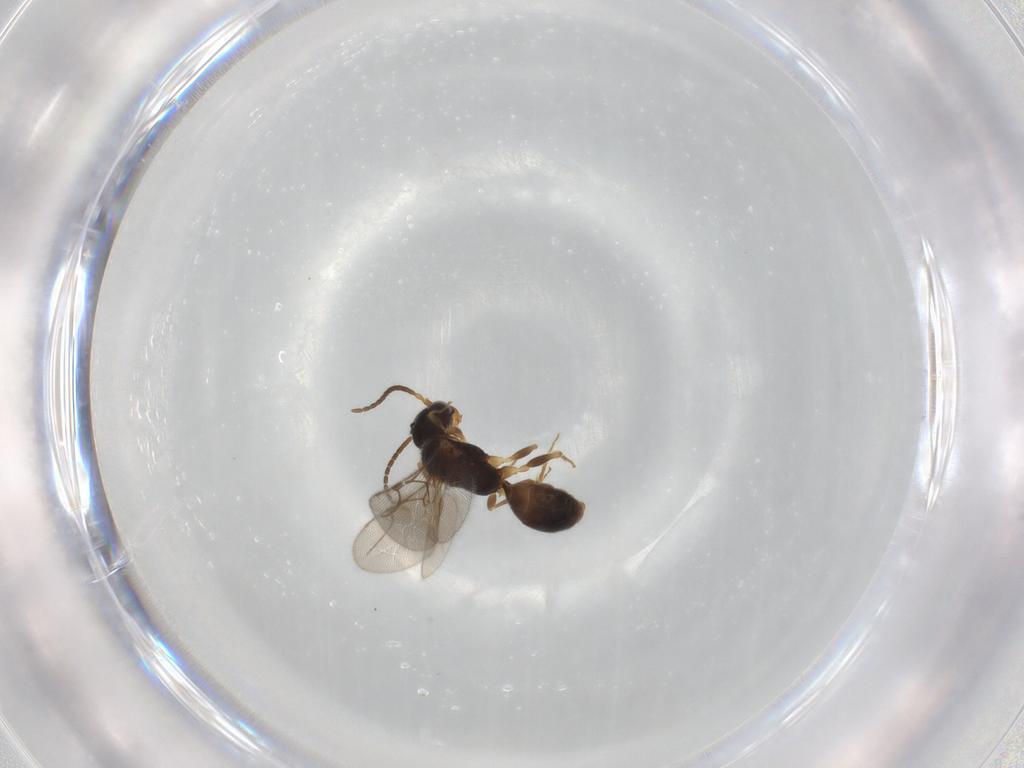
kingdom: Animalia
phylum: Arthropoda
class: Insecta
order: Hymenoptera
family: Bethylidae
